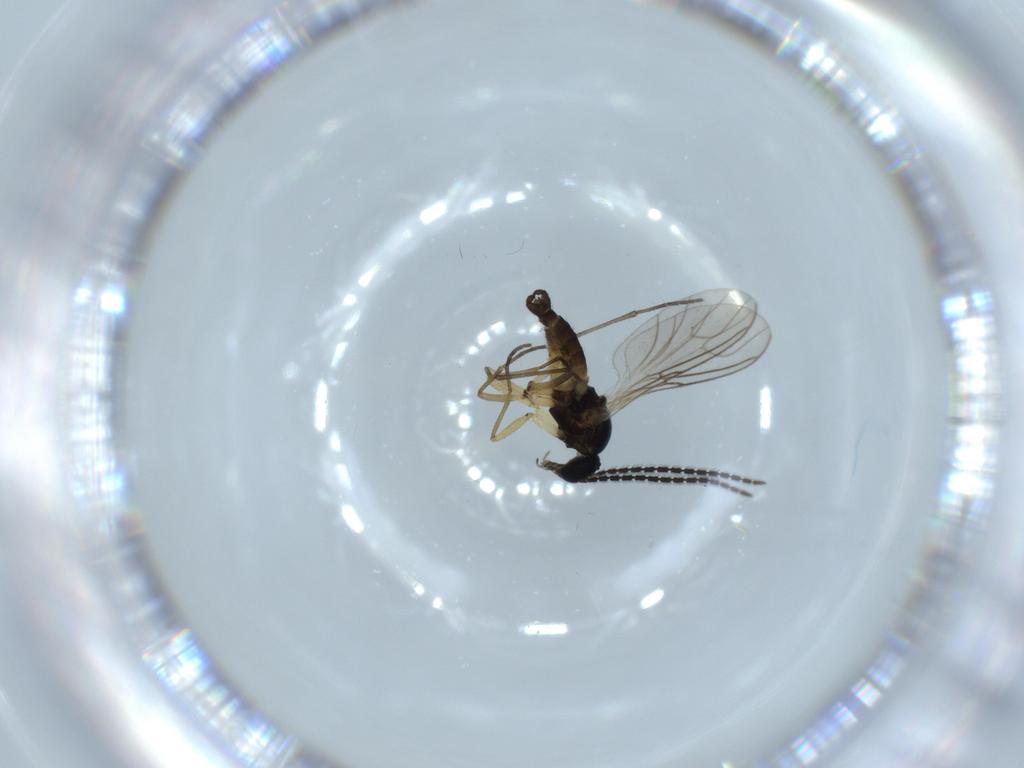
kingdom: Animalia
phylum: Arthropoda
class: Insecta
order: Diptera
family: Sciaridae
